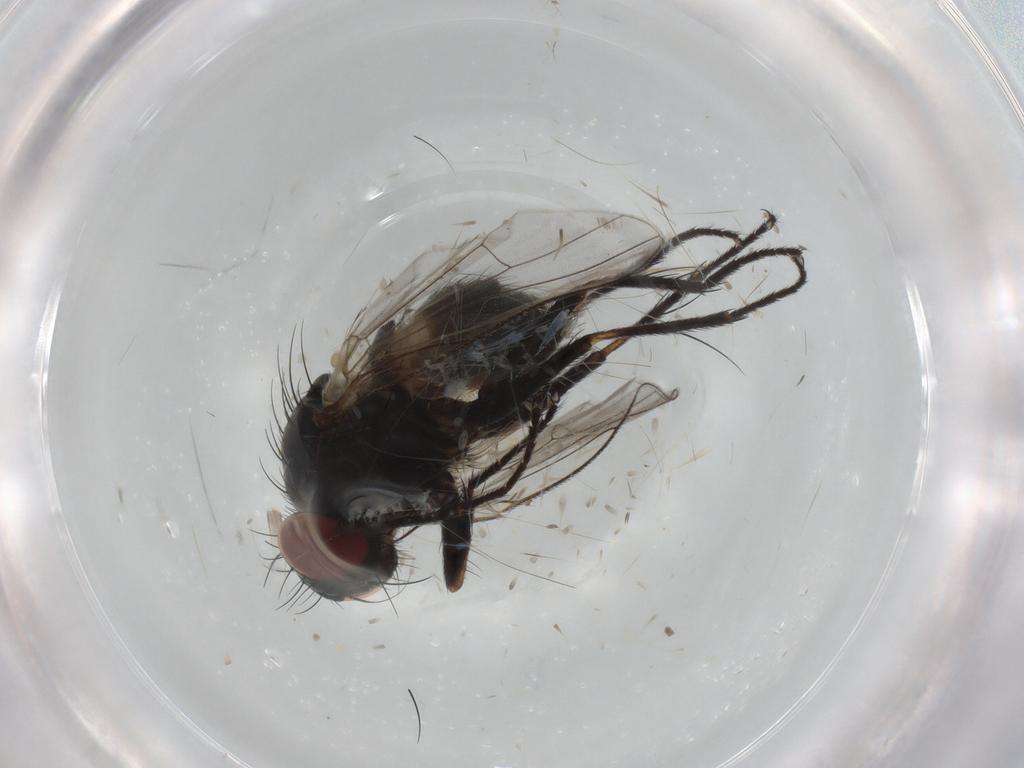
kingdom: Animalia
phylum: Arthropoda
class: Insecta
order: Diptera
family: Muscidae
